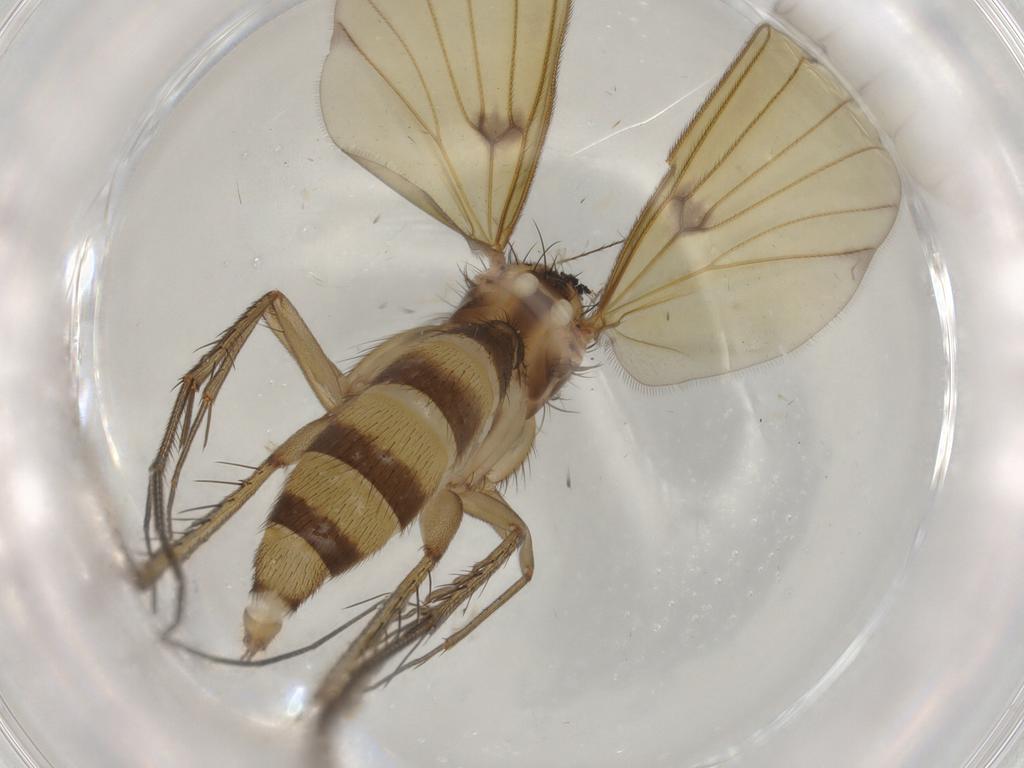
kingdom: Animalia
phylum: Arthropoda
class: Insecta
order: Diptera
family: Mycetophilidae
